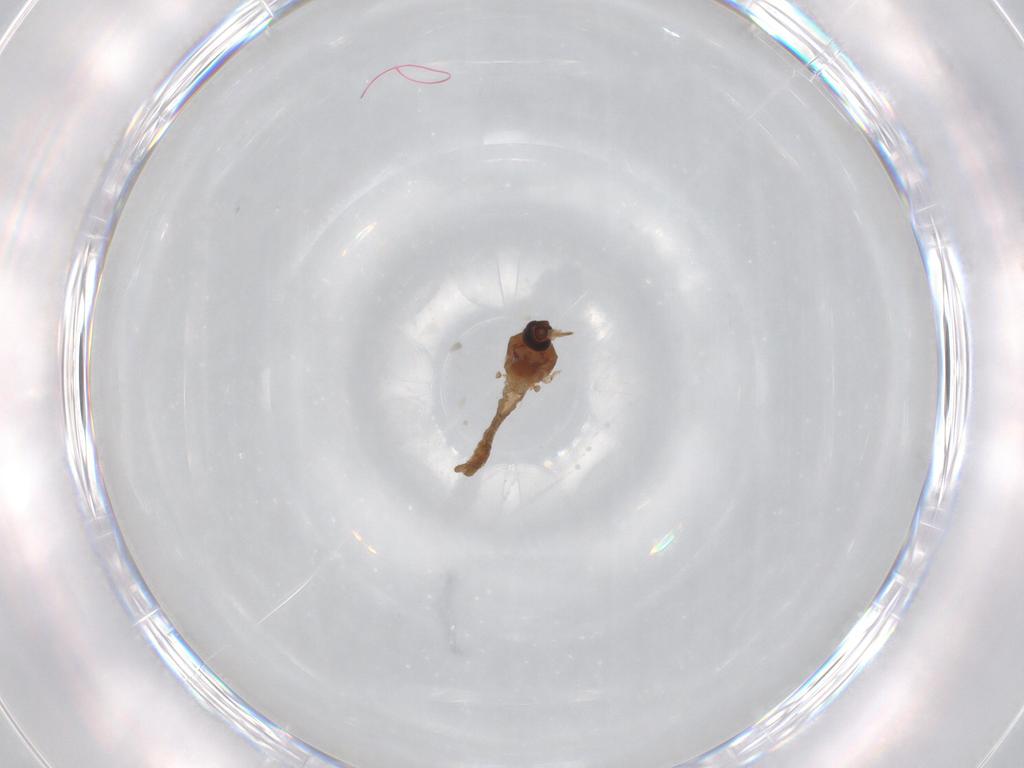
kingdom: Animalia
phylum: Arthropoda
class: Insecta
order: Diptera
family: Ceratopogonidae
